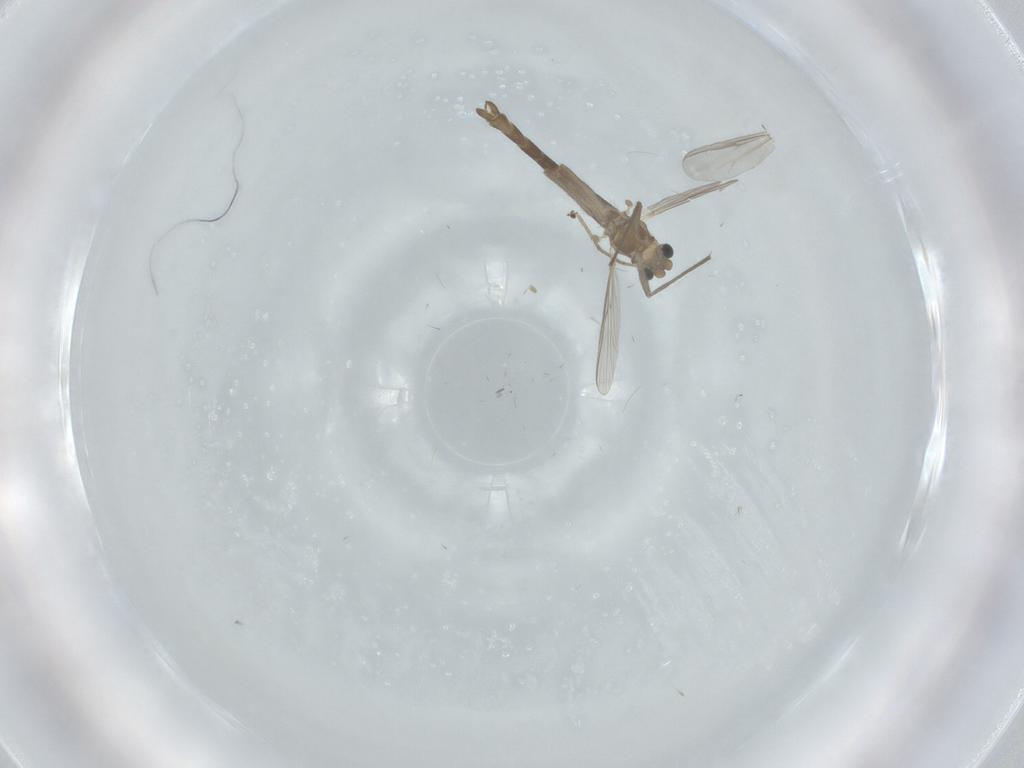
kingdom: Animalia
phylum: Arthropoda
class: Insecta
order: Diptera
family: Chironomidae
